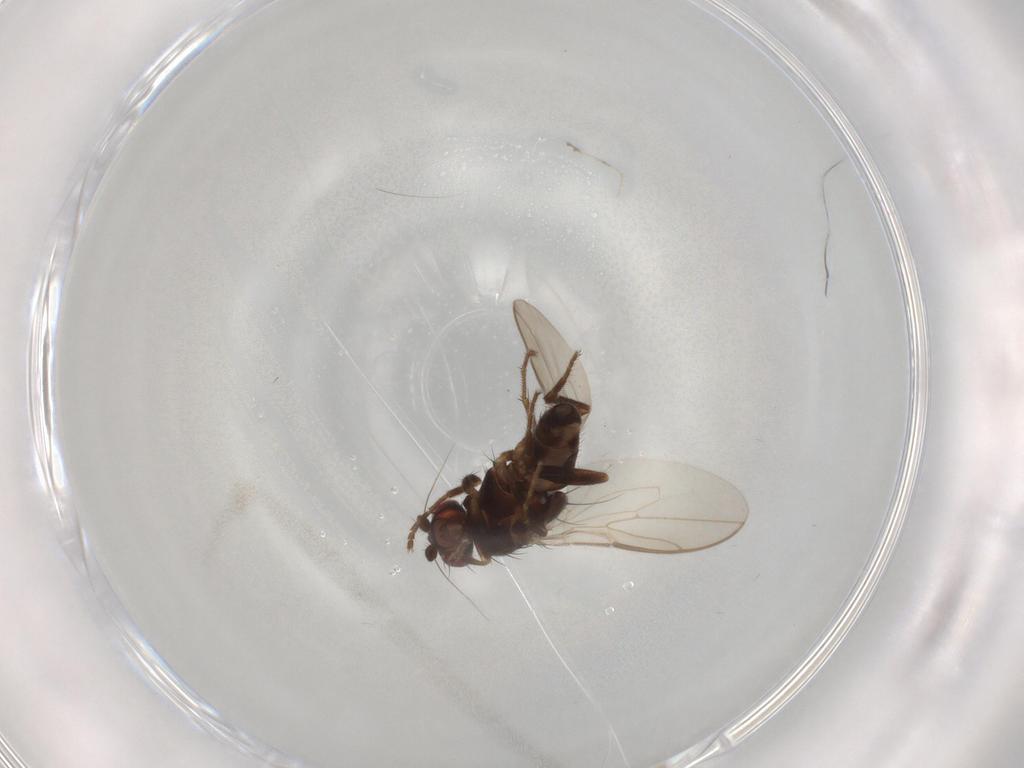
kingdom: Animalia
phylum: Arthropoda
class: Insecta
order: Diptera
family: Sphaeroceridae
